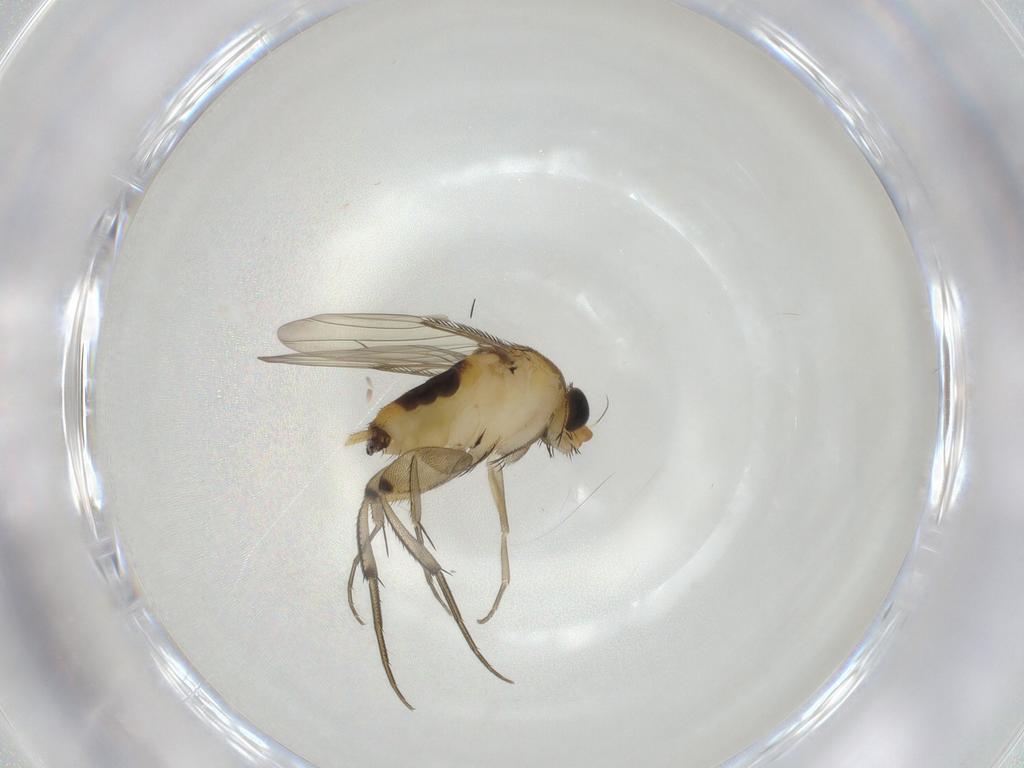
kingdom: Animalia
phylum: Arthropoda
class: Insecta
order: Diptera
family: Phoridae
